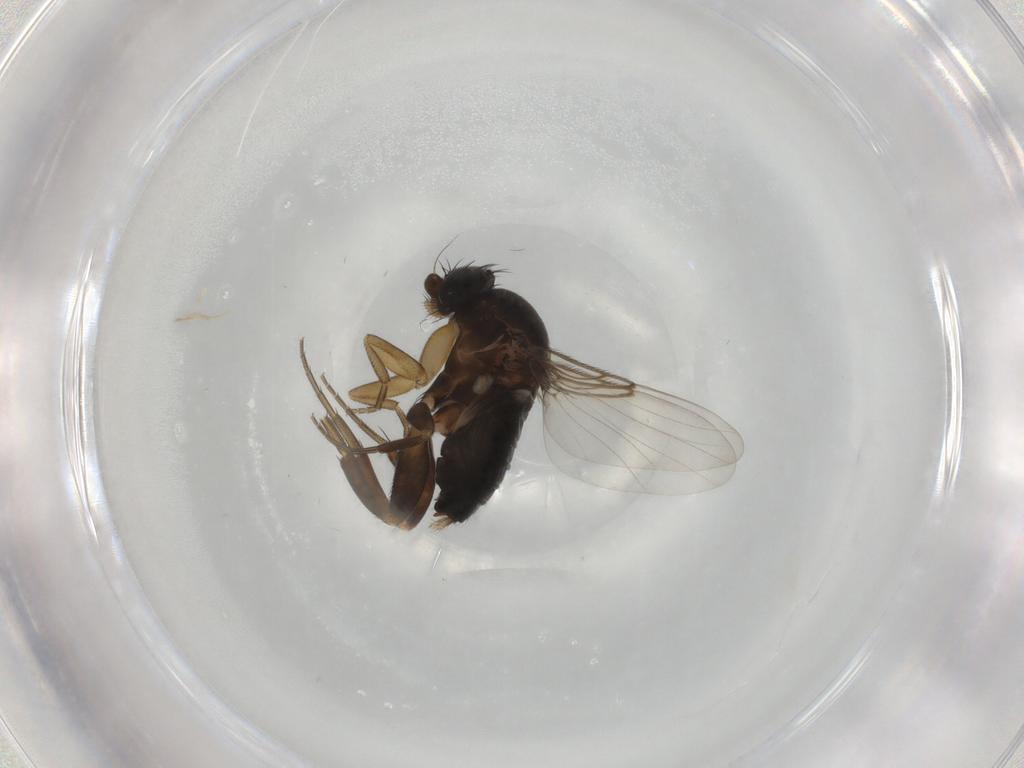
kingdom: Animalia
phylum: Arthropoda
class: Insecta
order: Diptera
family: Phoridae
